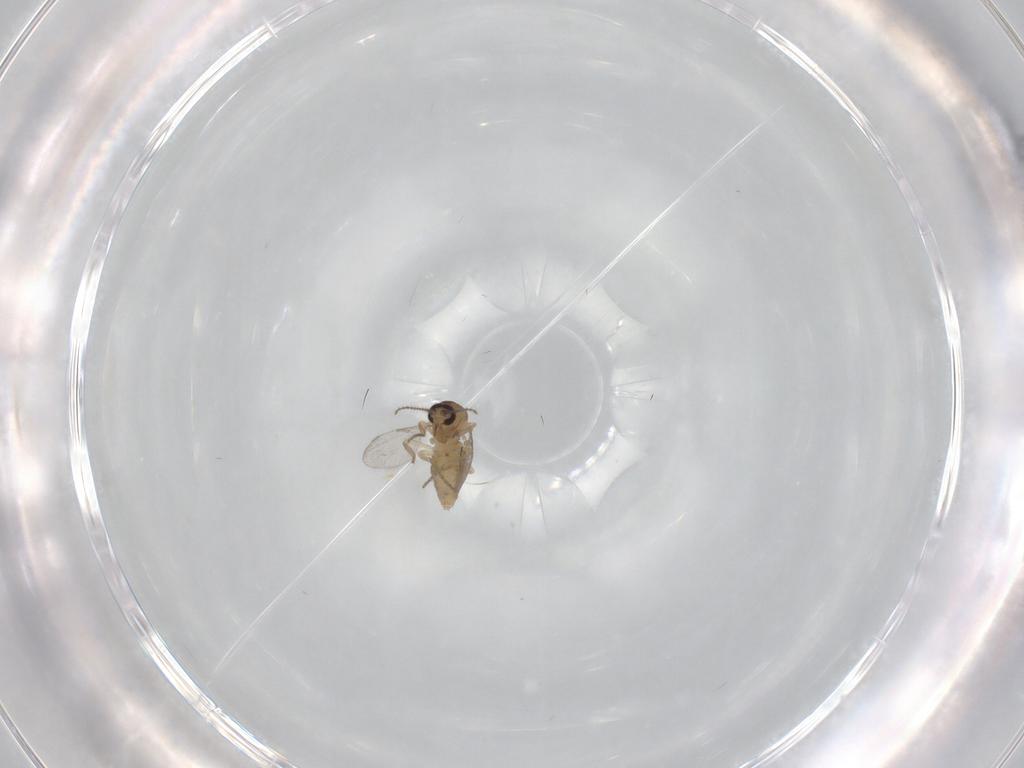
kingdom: Animalia
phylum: Arthropoda
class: Insecta
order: Diptera
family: Ceratopogonidae
